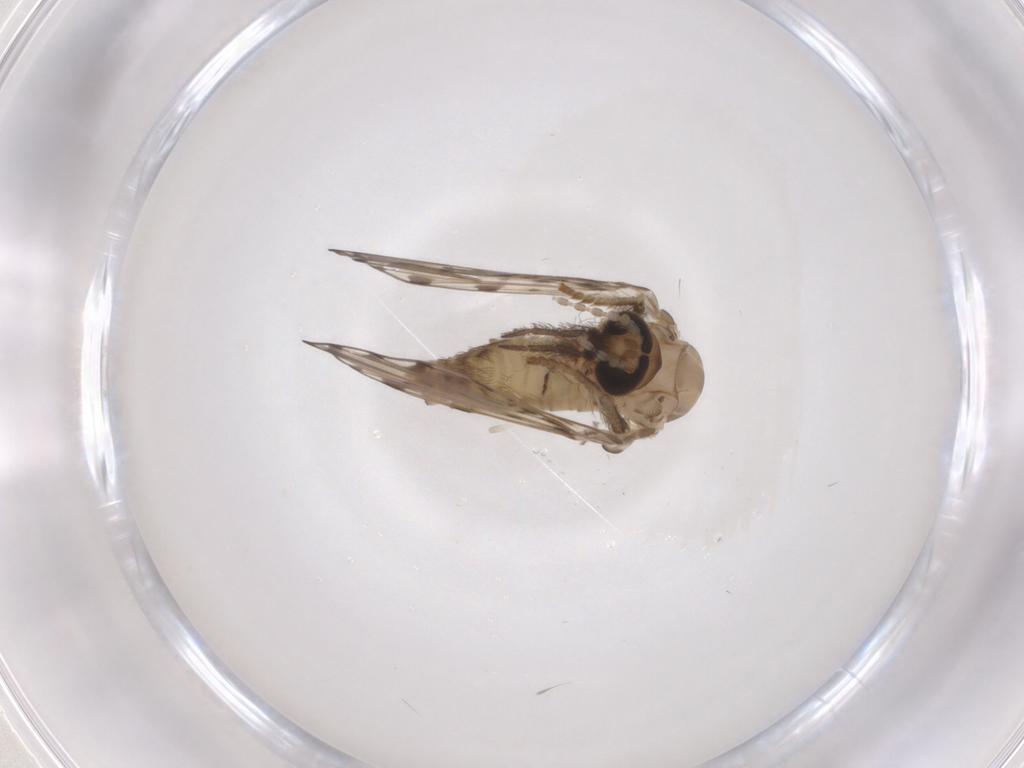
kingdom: Animalia
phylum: Arthropoda
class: Insecta
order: Diptera
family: Psychodidae
